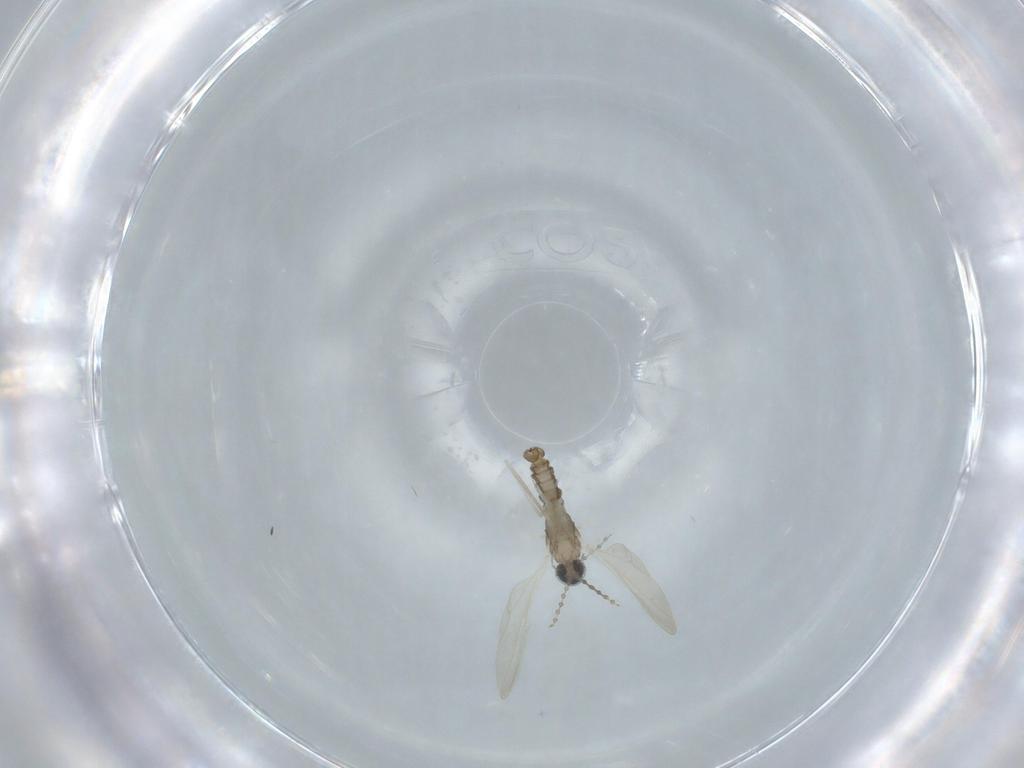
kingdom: Animalia
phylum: Arthropoda
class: Insecta
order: Diptera
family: Cecidomyiidae
